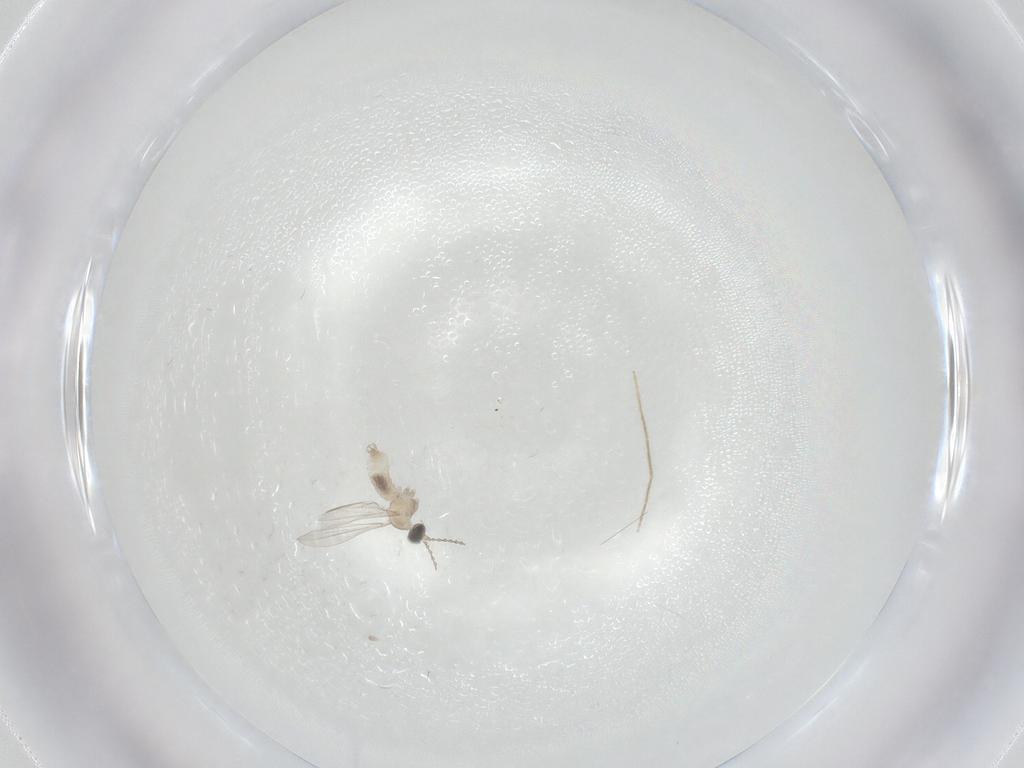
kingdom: Animalia
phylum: Arthropoda
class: Insecta
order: Diptera
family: Cecidomyiidae
